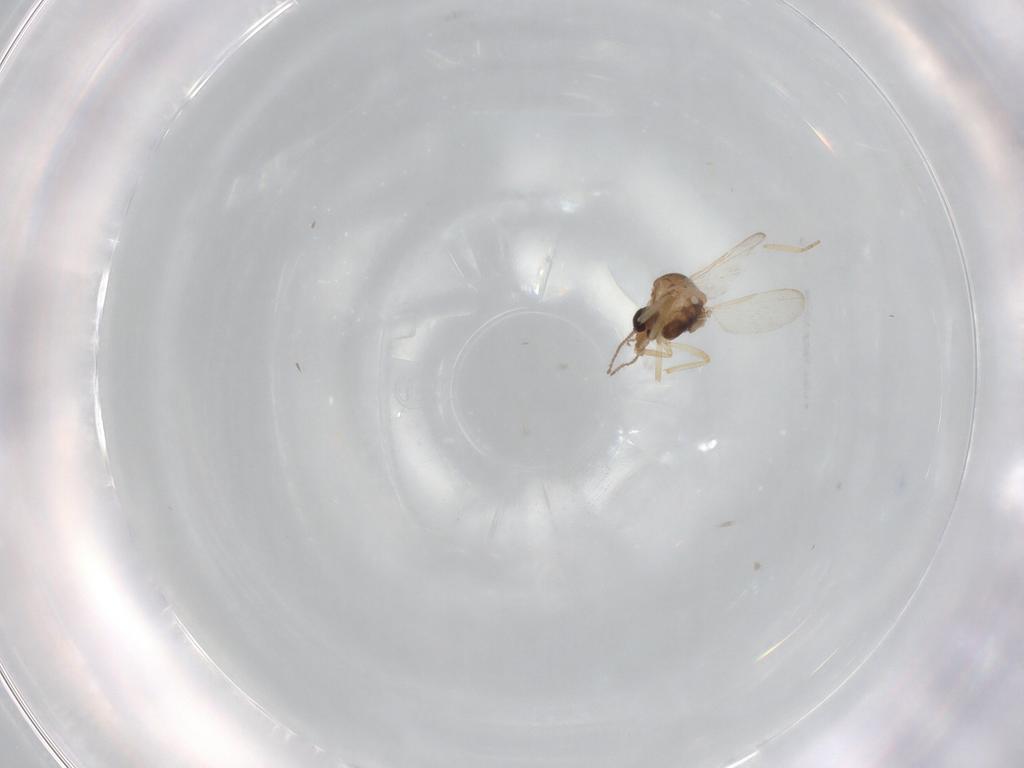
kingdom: Animalia
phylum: Arthropoda
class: Insecta
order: Diptera
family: Ceratopogonidae
